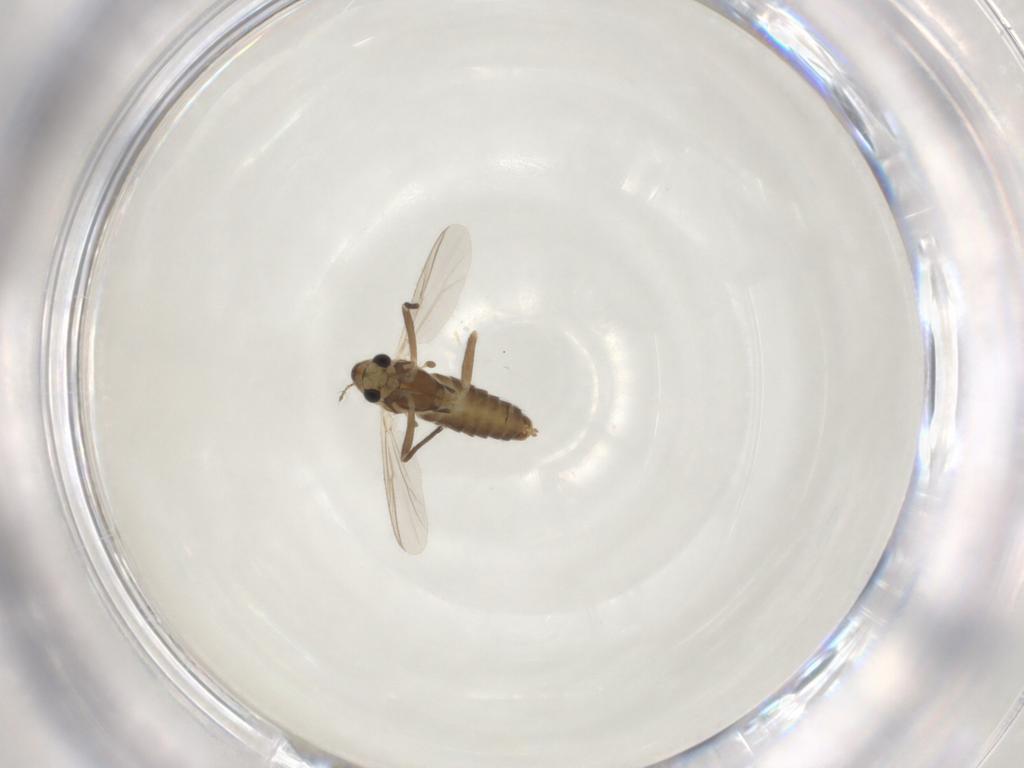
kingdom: Animalia
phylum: Arthropoda
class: Insecta
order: Diptera
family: Chironomidae
